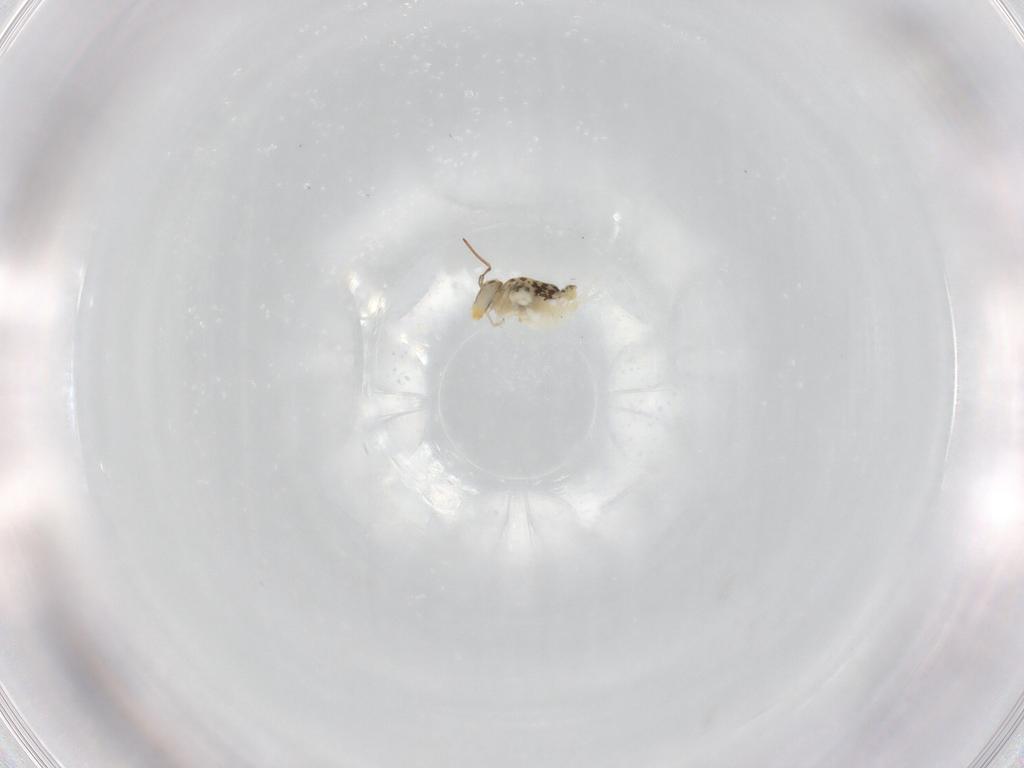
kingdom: Animalia
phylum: Arthropoda
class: Collembola
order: Symphypleona
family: Bourletiellidae
